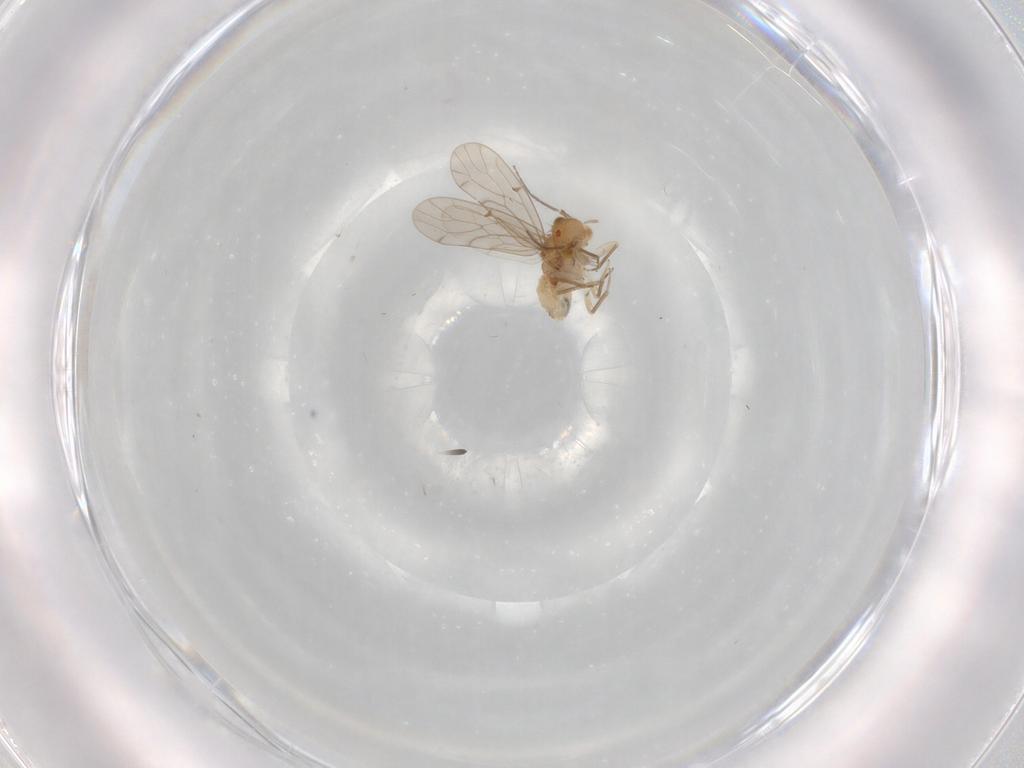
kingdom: Animalia
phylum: Arthropoda
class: Insecta
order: Psocodea
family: Ectopsocidae
